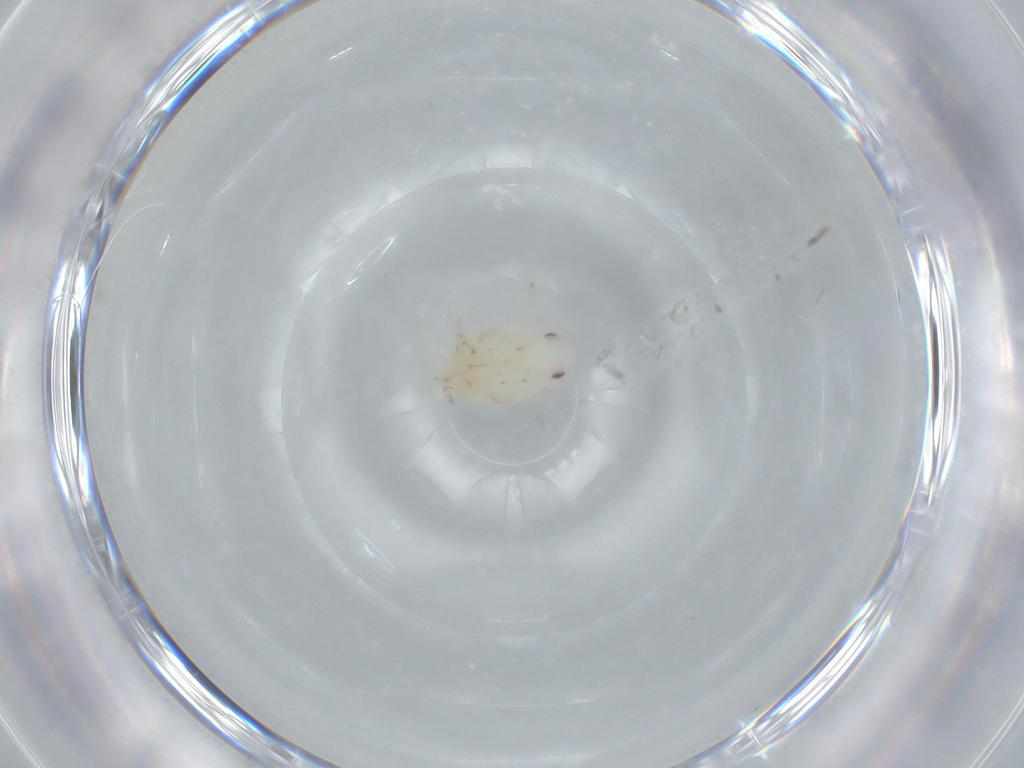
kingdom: Animalia
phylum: Arthropoda
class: Insecta
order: Hemiptera
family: Flatidae
